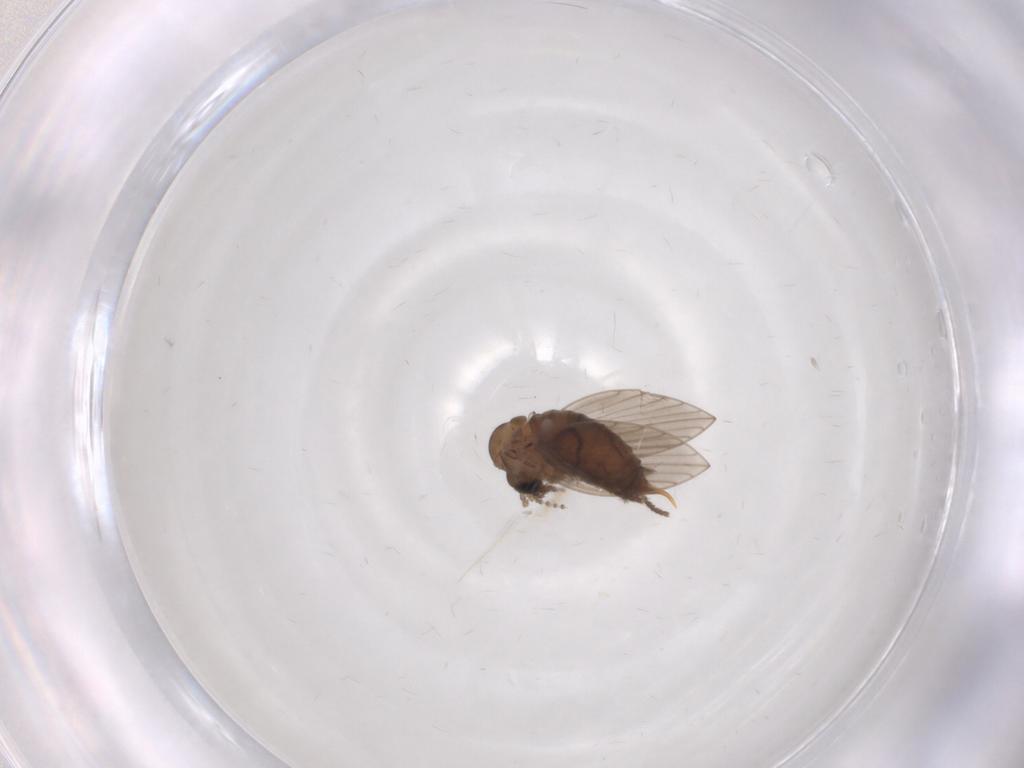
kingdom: Animalia
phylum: Arthropoda
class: Insecta
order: Diptera
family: Psychodidae
